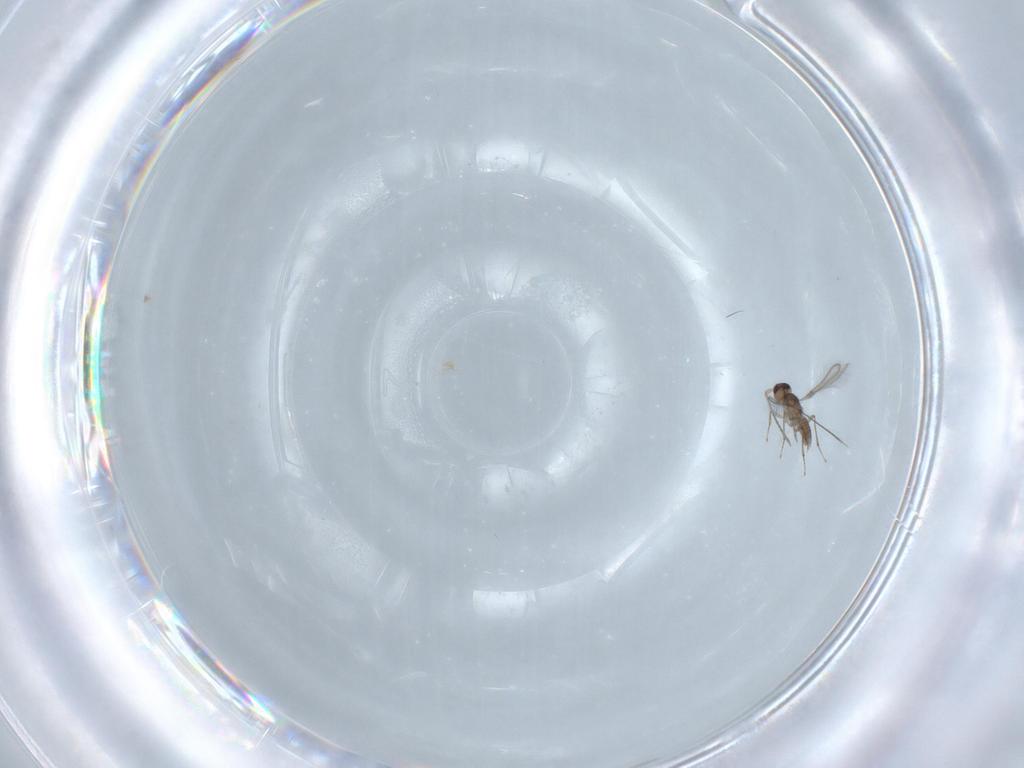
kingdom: Animalia
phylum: Arthropoda
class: Insecta
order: Hymenoptera
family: Mymaridae
